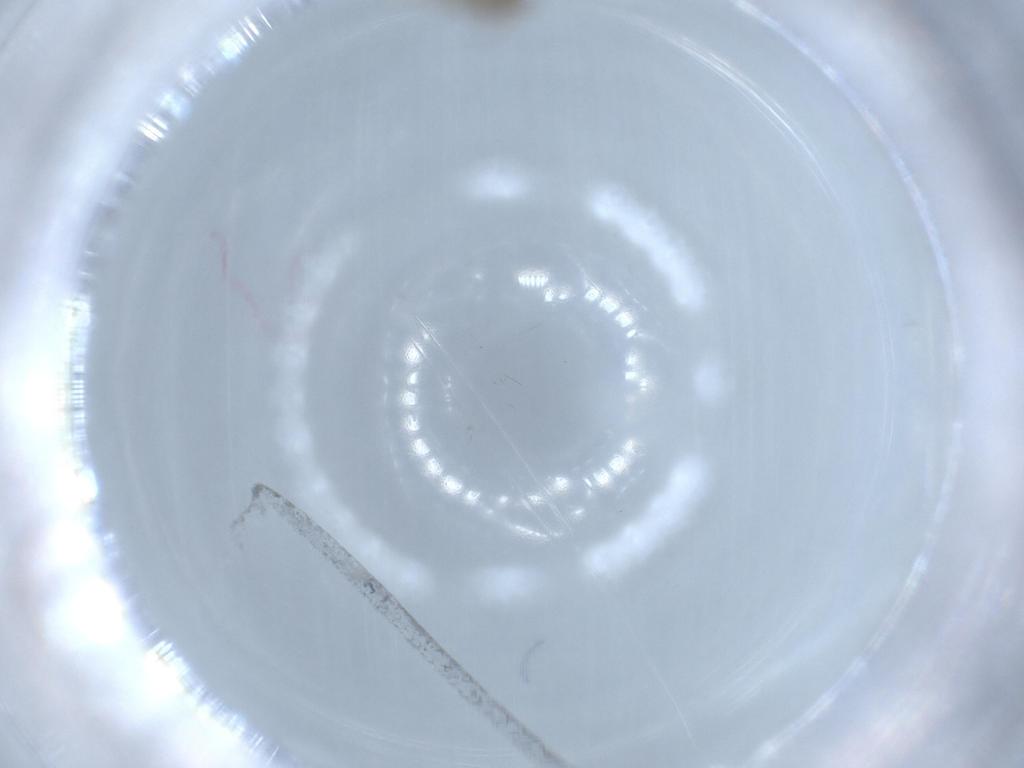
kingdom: Animalia
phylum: Arthropoda
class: Insecta
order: Diptera
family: Chironomidae
